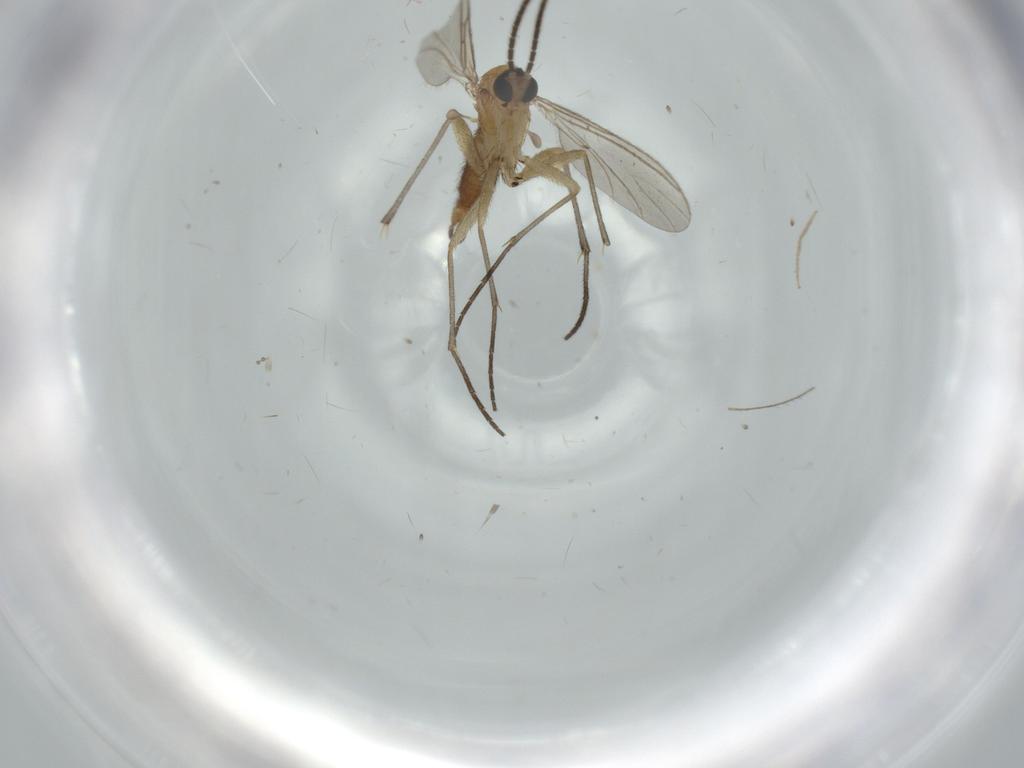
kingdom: Animalia
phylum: Arthropoda
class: Insecta
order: Diptera
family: Sciaridae
